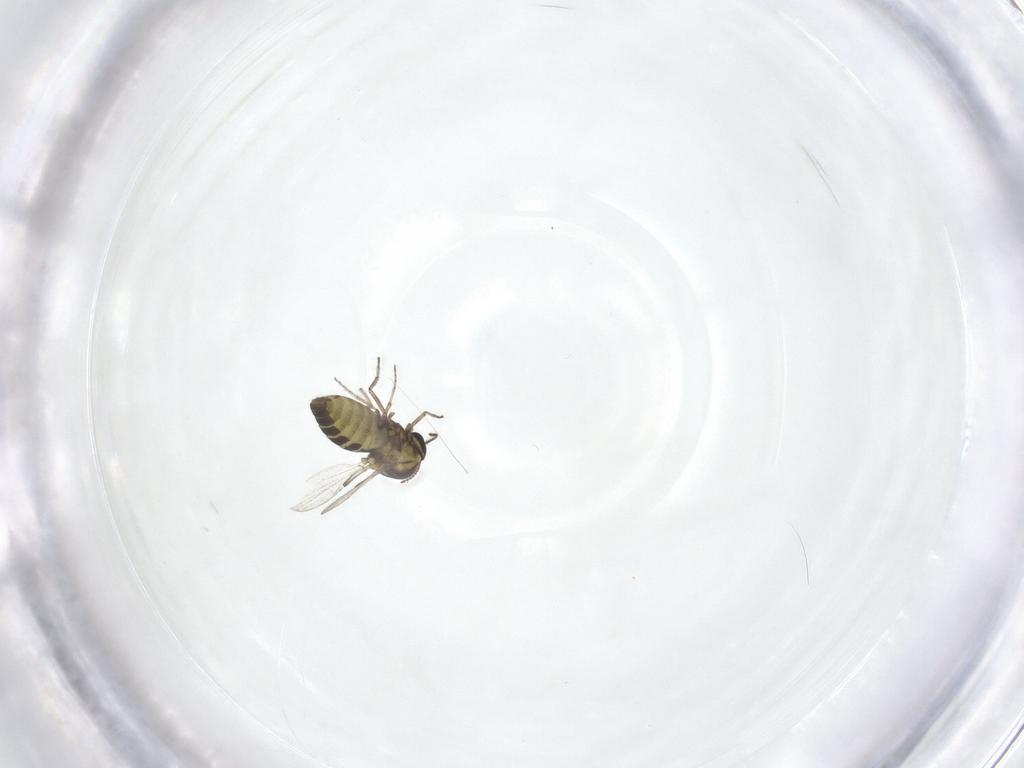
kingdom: Animalia
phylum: Arthropoda
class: Insecta
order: Diptera
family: Ceratopogonidae
